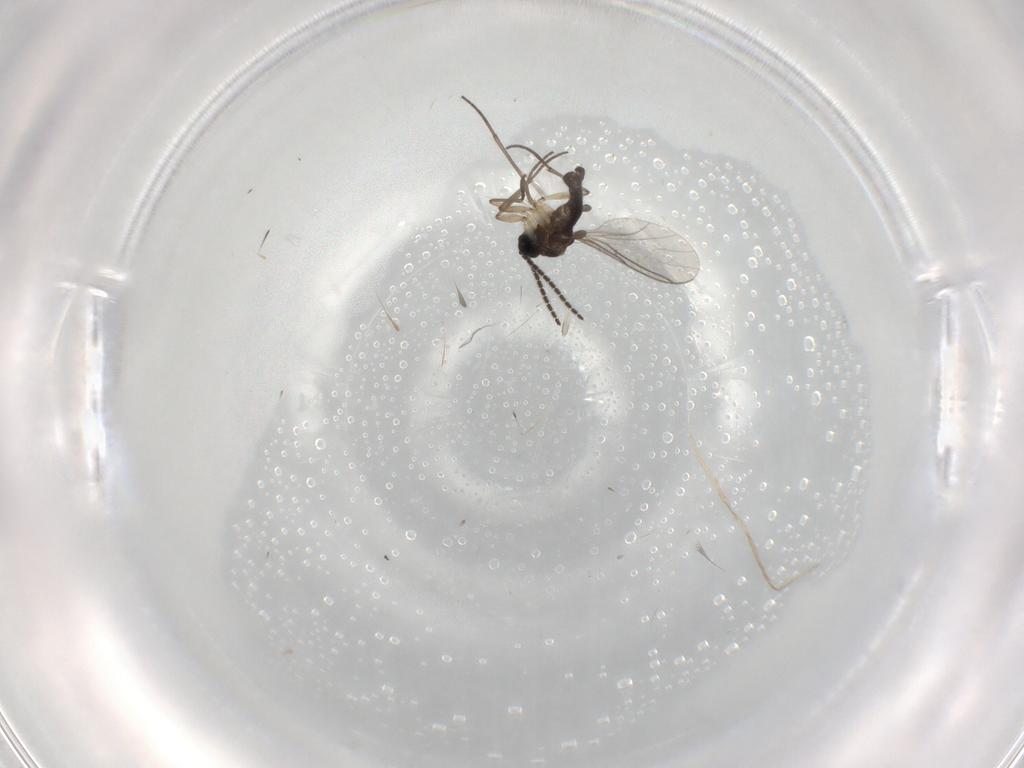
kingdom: Animalia
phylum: Arthropoda
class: Insecta
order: Diptera
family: Sciaridae
